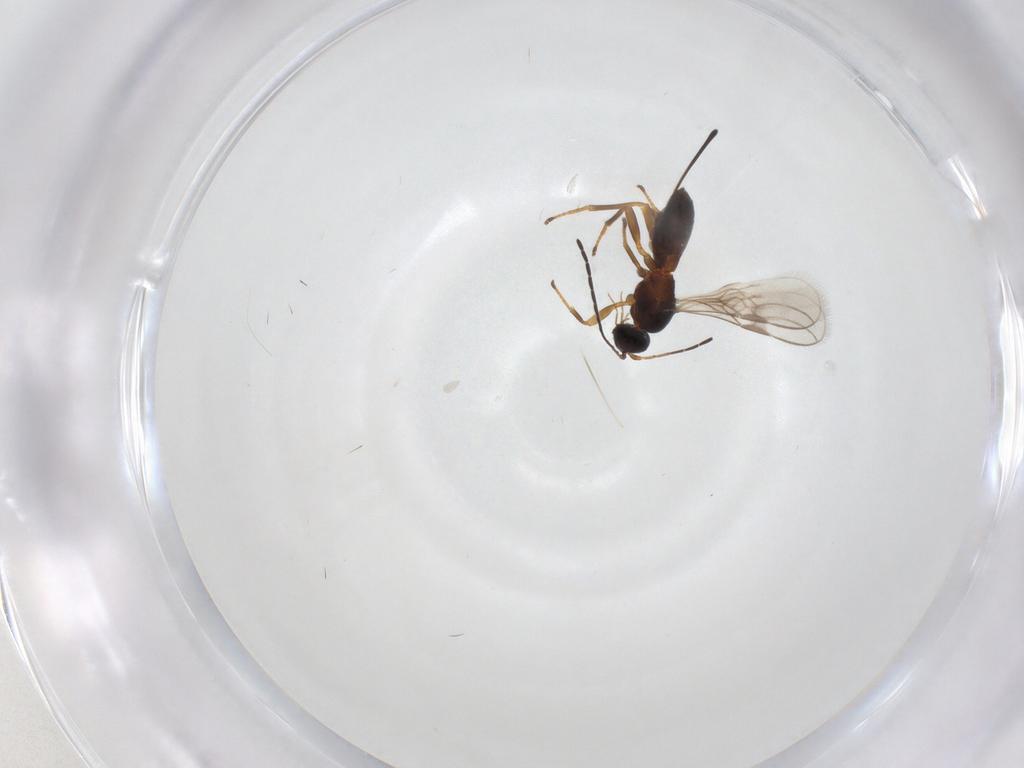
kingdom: Animalia
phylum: Arthropoda
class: Insecta
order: Hymenoptera
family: Braconidae
